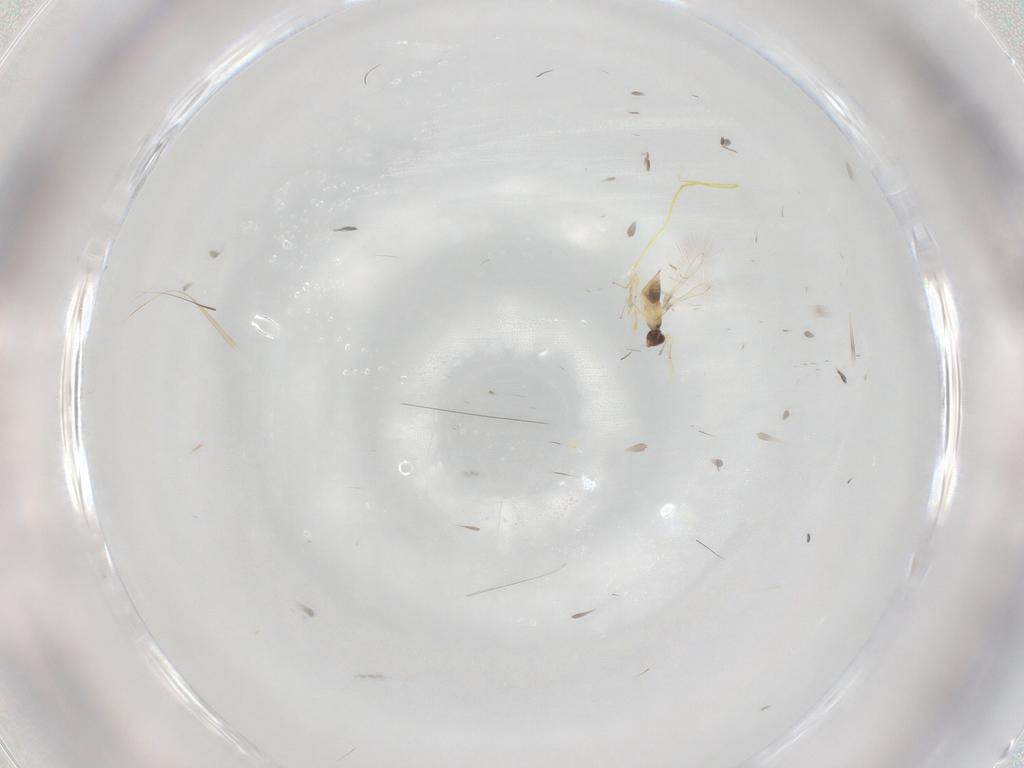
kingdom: Animalia
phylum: Arthropoda
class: Insecta
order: Hymenoptera
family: Mymaridae
